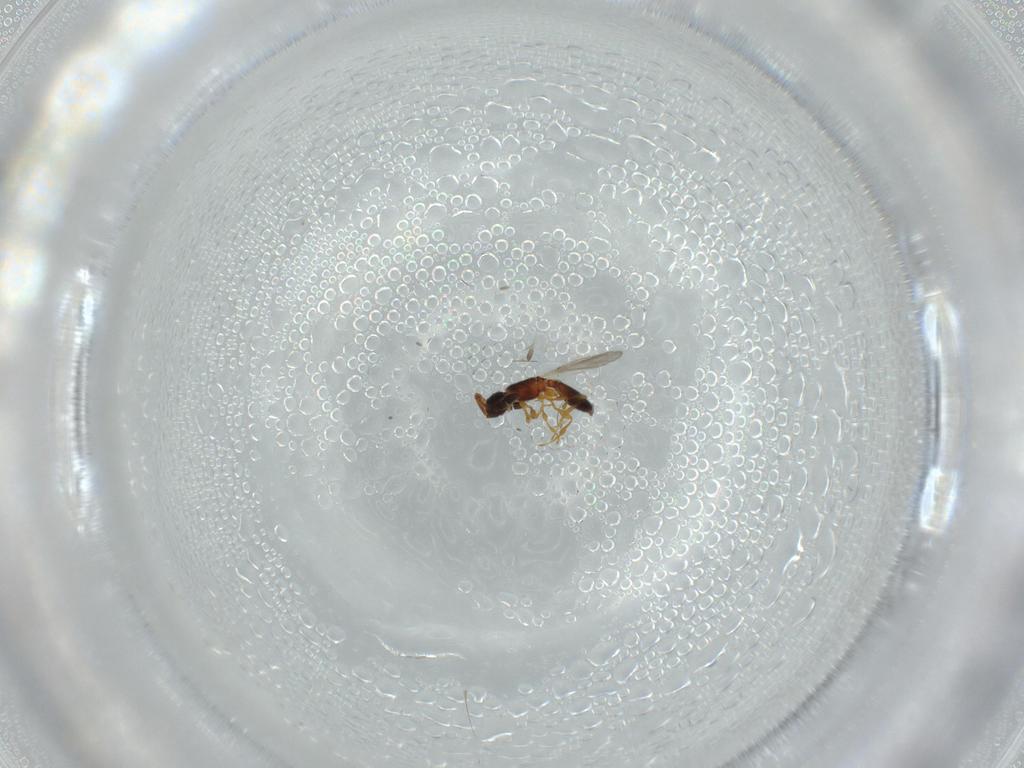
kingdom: Animalia
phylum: Arthropoda
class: Insecta
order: Hymenoptera
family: Diapriidae
